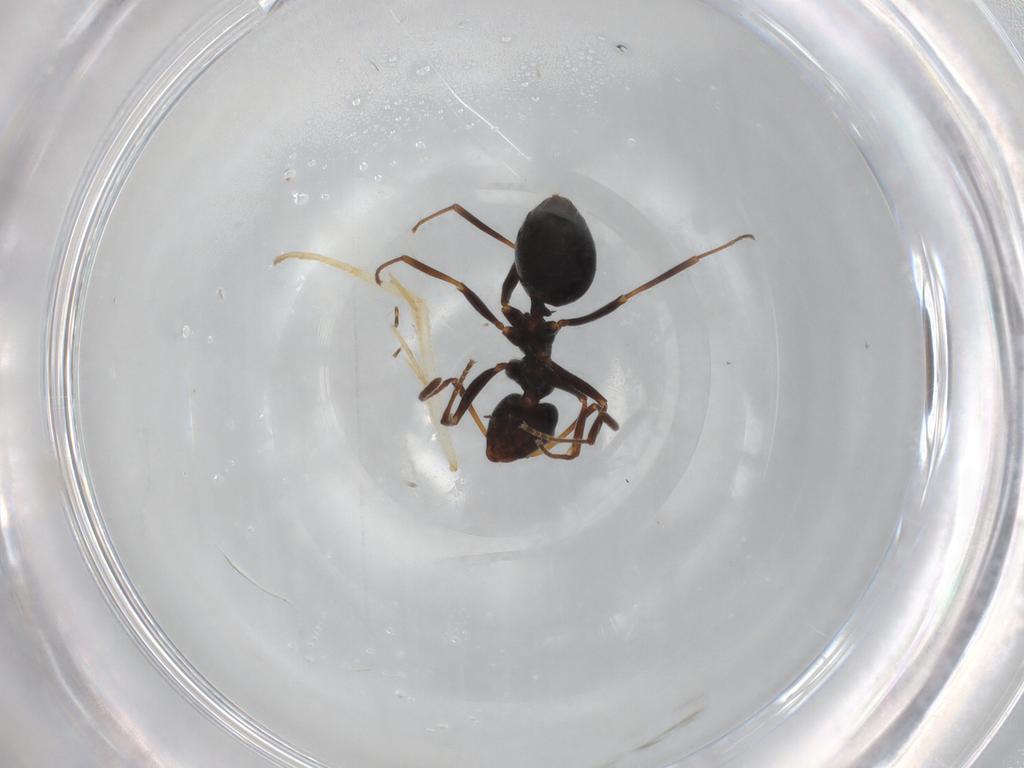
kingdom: Animalia
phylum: Arthropoda
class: Insecta
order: Hymenoptera
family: Formicidae
